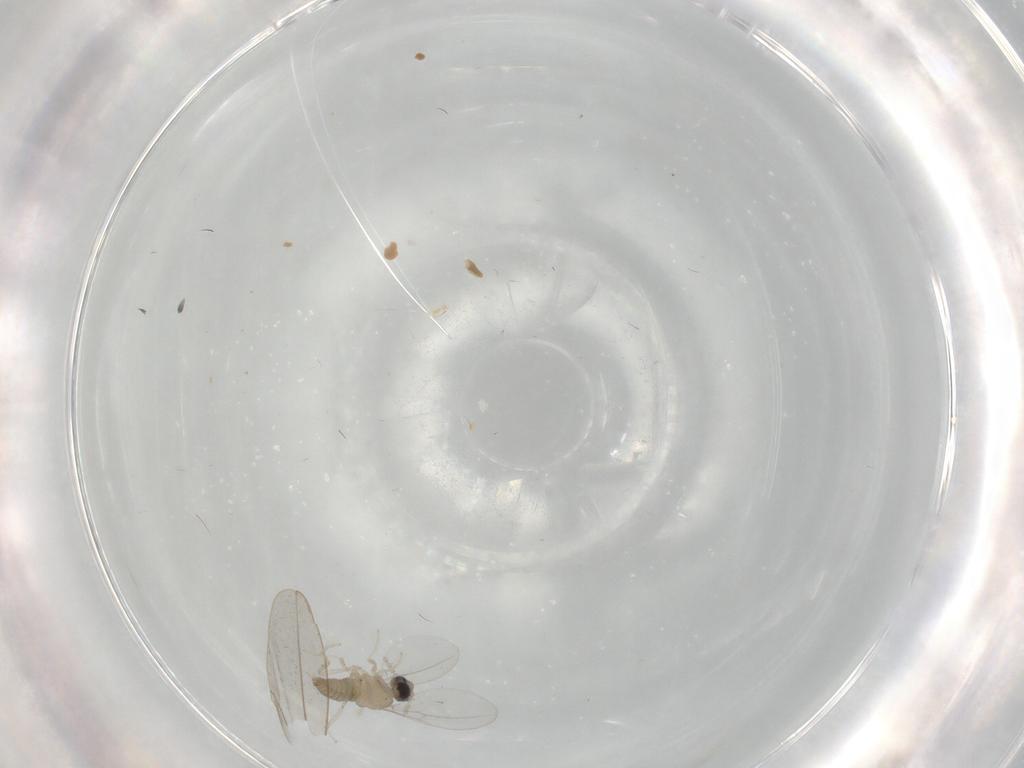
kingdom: Animalia
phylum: Arthropoda
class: Insecta
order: Diptera
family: Cecidomyiidae
